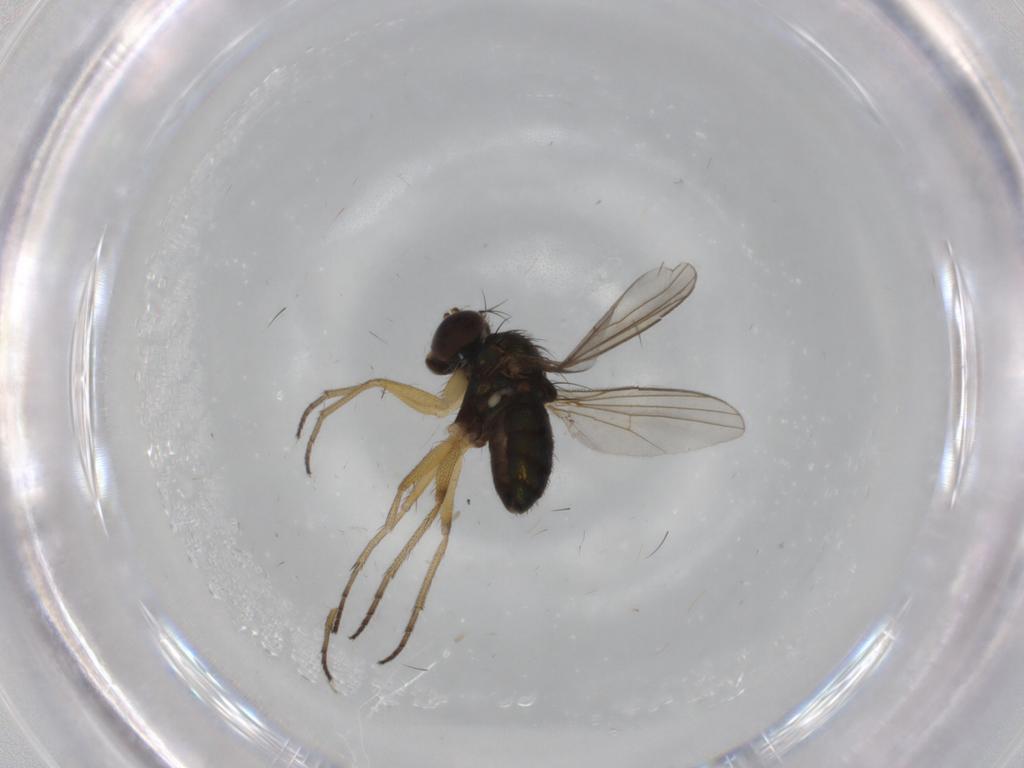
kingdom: Animalia
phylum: Arthropoda
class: Insecta
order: Diptera
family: Dolichopodidae
